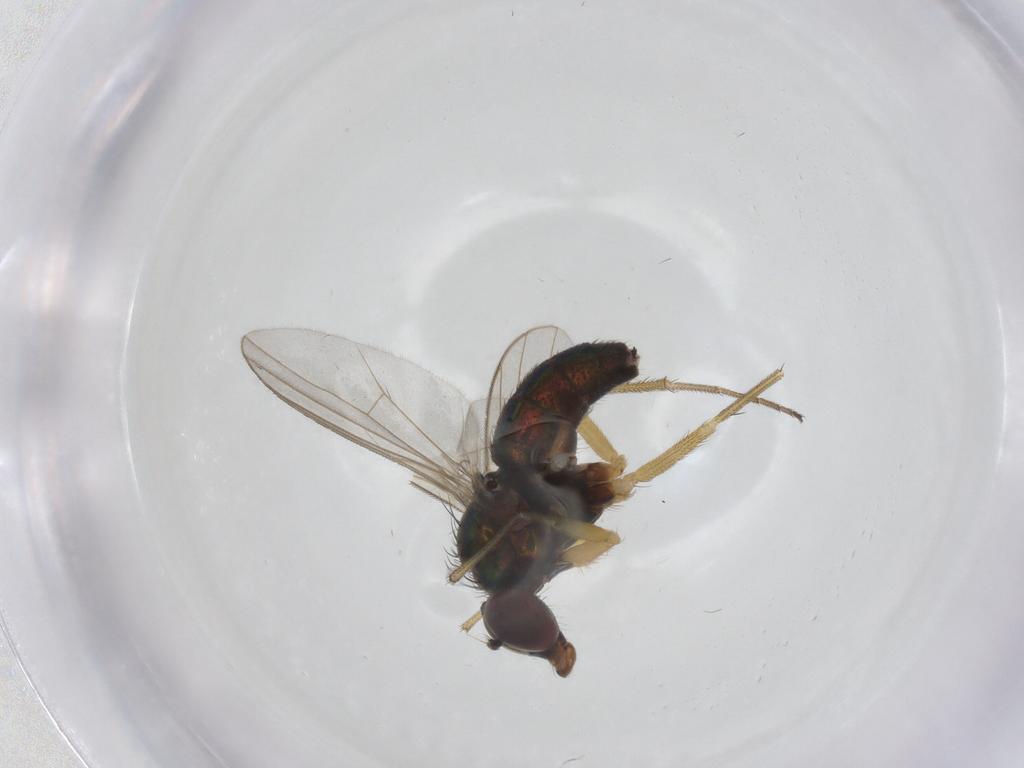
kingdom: Animalia
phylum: Arthropoda
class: Insecta
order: Diptera
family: Dolichopodidae
